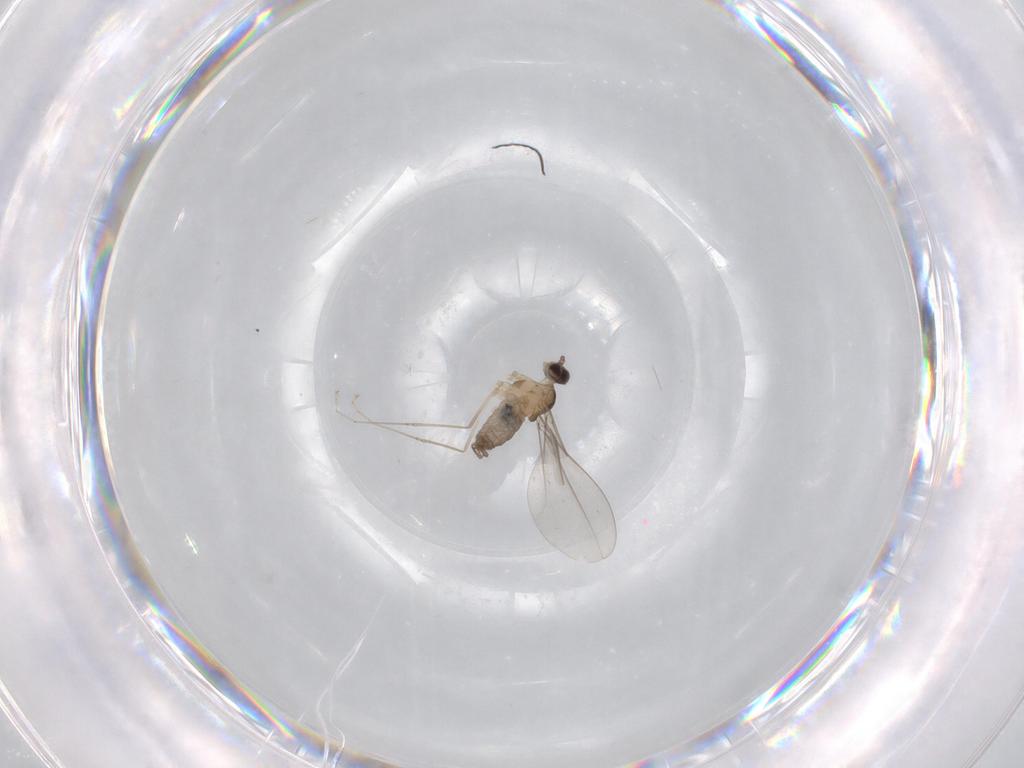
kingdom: Animalia
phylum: Arthropoda
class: Insecta
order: Diptera
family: Cecidomyiidae
